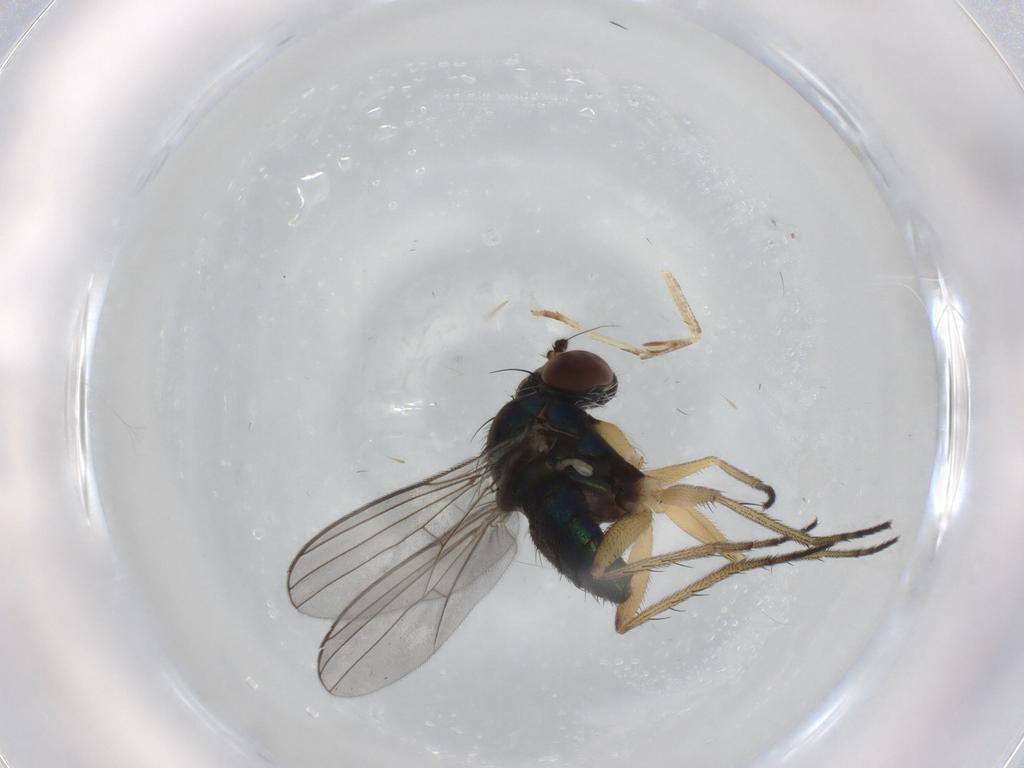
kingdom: Animalia
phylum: Arthropoda
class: Insecta
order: Diptera
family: Dolichopodidae
